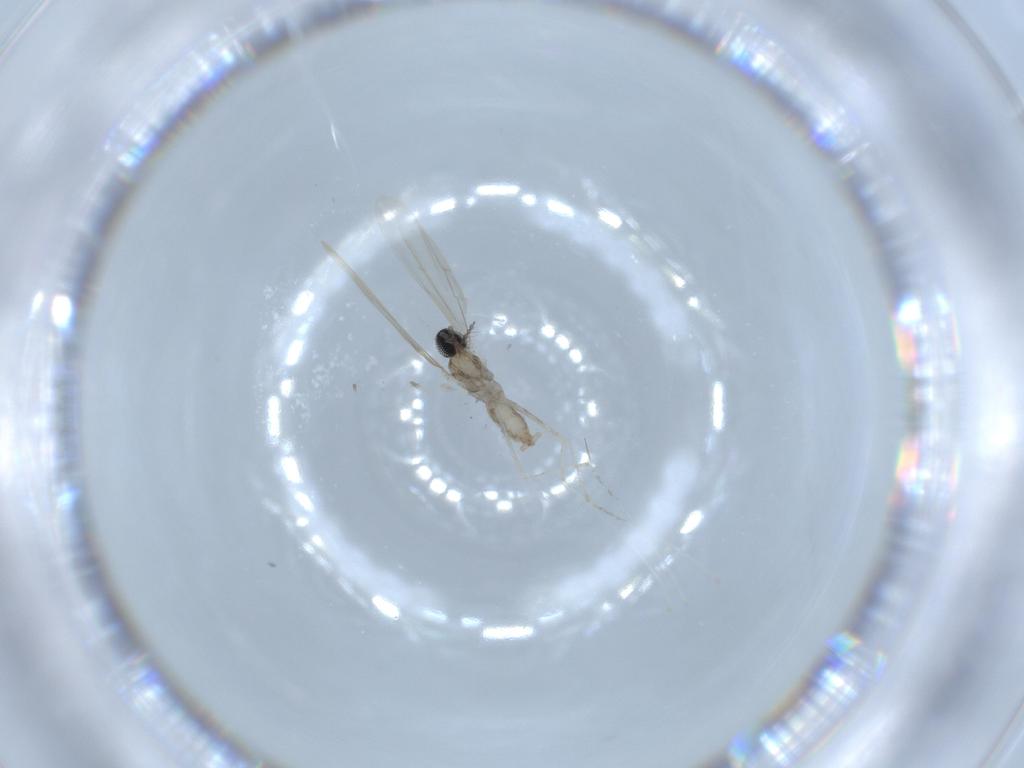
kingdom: Animalia
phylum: Arthropoda
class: Insecta
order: Diptera
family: Cecidomyiidae
